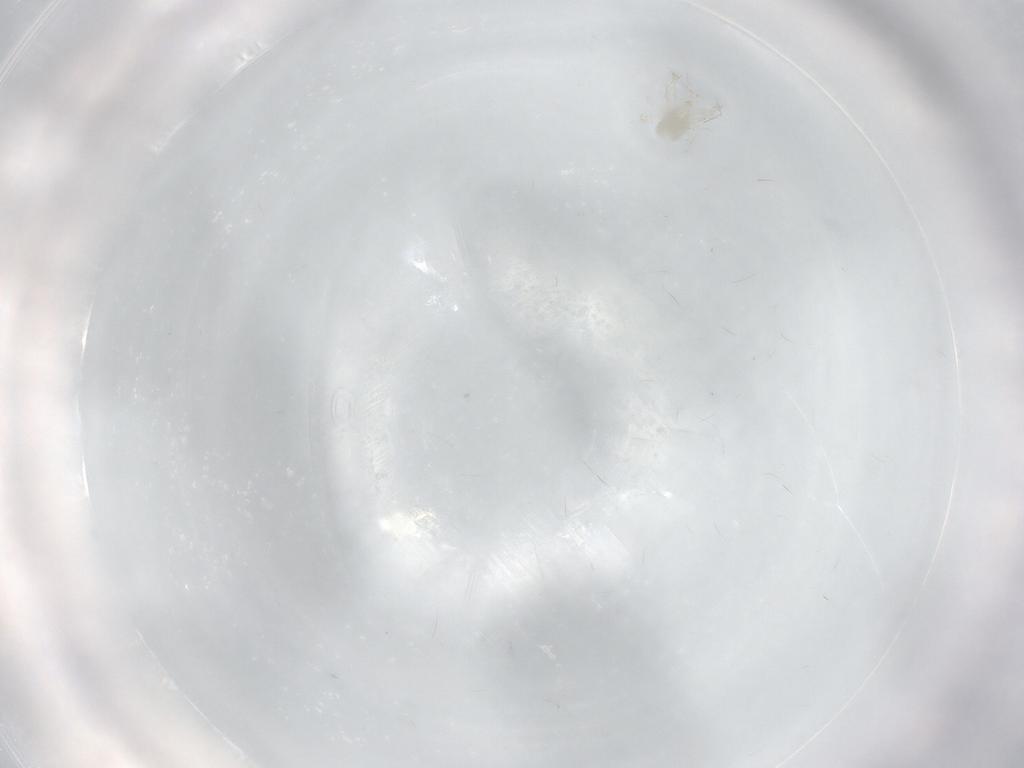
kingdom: Animalia
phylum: Arthropoda
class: Arachnida
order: Mesostigmata
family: Blattisociidae
